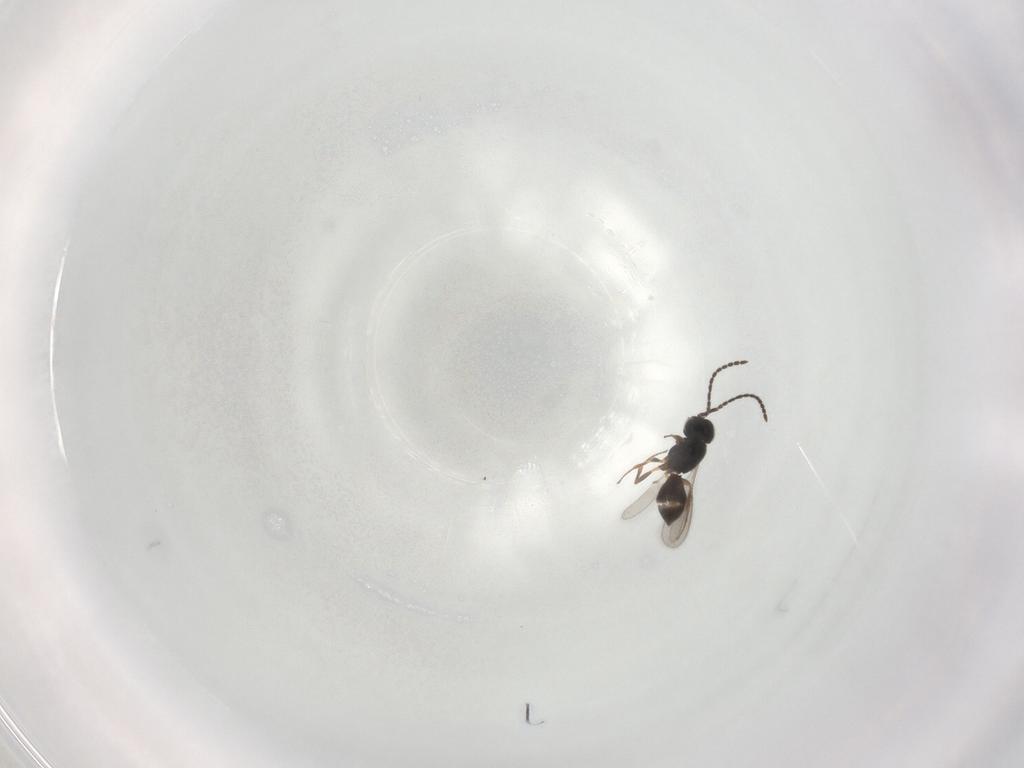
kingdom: Animalia
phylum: Arthropoda
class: Insecta
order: Hymenoptera
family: Scelionidae
